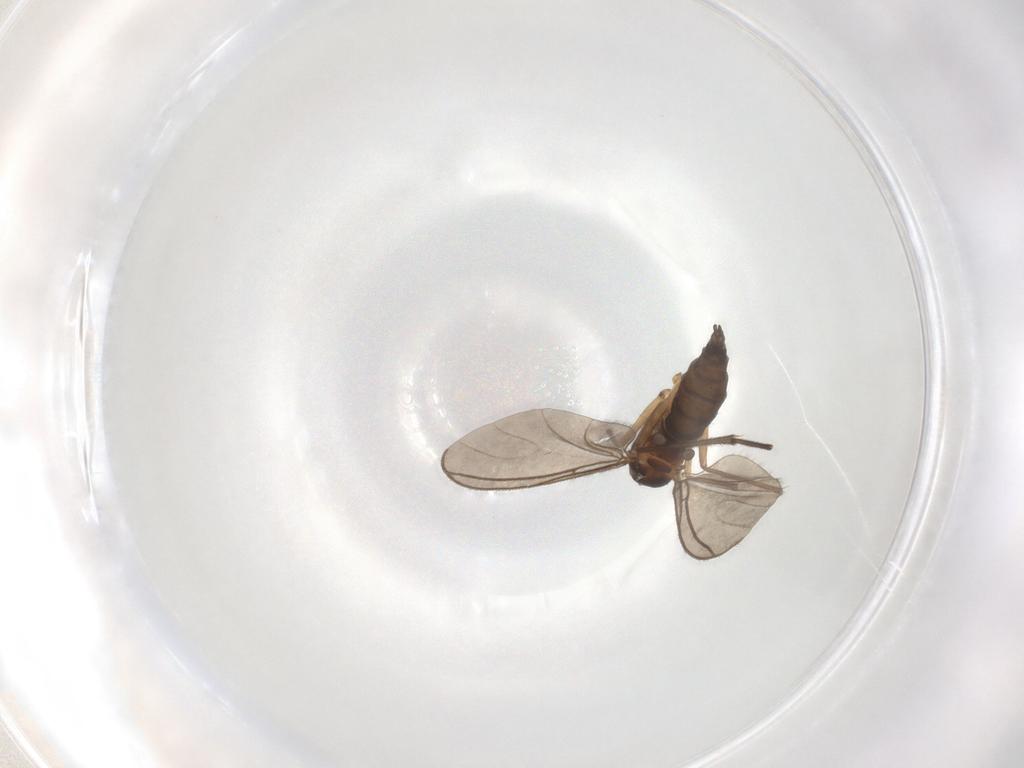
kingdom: Animalia
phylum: Arthropoda
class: Insecta
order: Diptera
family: Sciaridae
